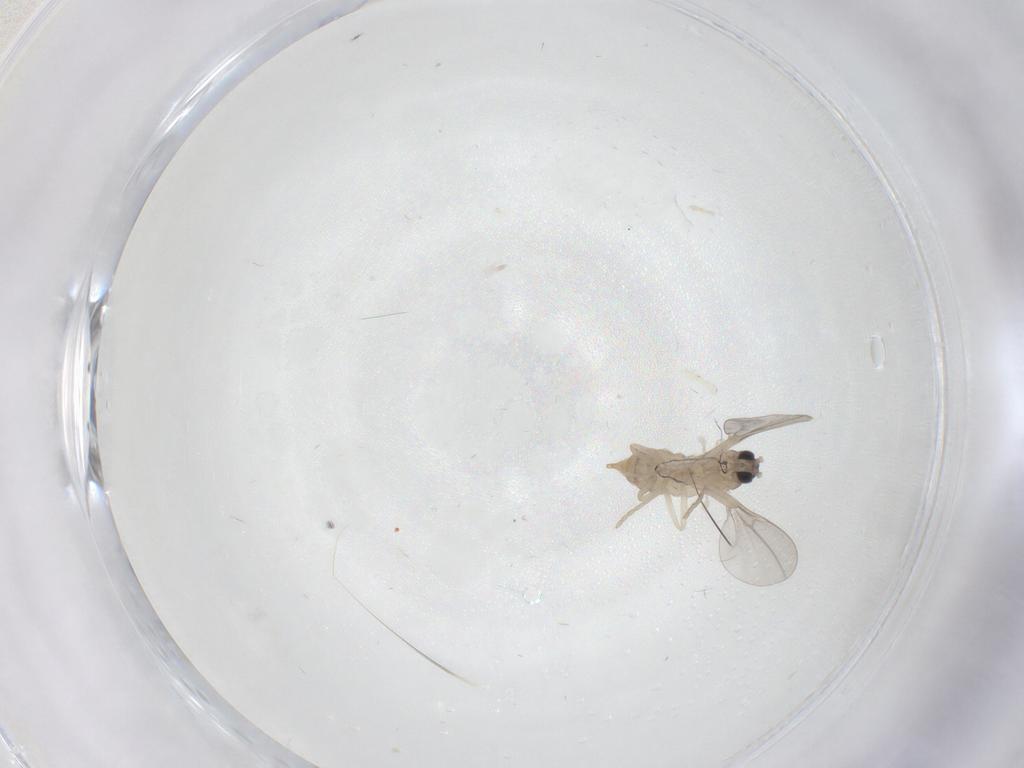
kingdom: Animalia
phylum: Arthropoda
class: Insecta
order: Diptera
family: Cecidomyiidae
